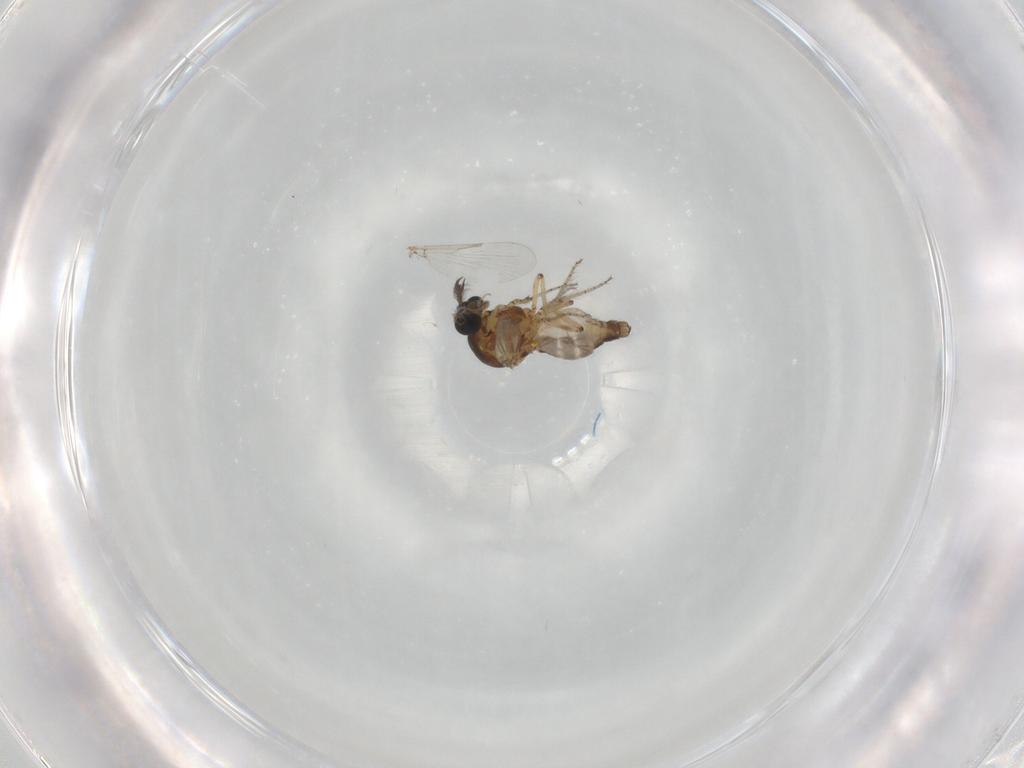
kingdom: Animalia
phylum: Arthropoda
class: Insecta
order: Diptera
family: Ceratopogonidae
